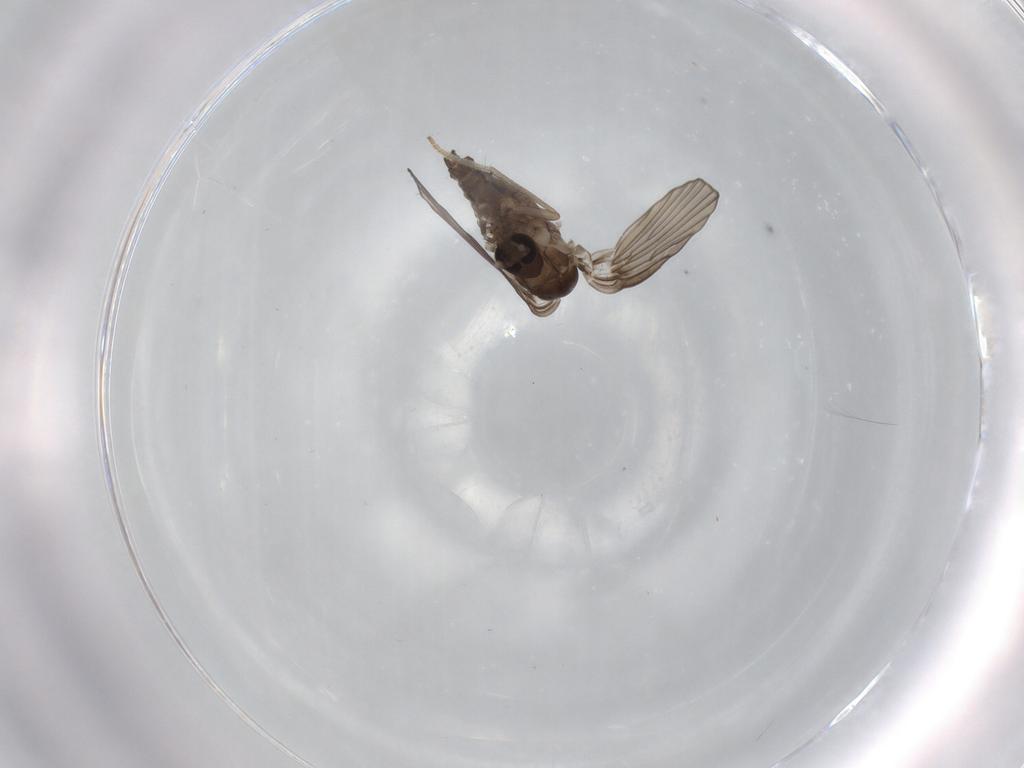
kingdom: Animalia
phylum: Arthropoda
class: Insecta
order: Diptera
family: Psychodidae
